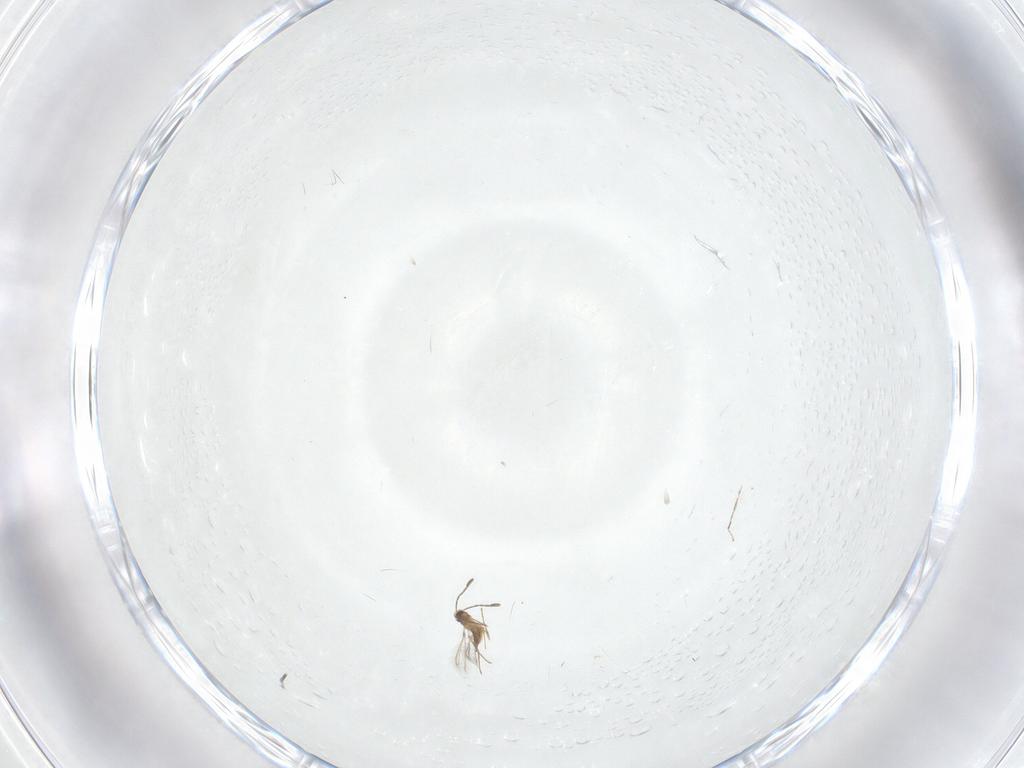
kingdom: Animalia
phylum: Arthropoda
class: Insecta
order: Hymenoptera
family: Mymaridae
